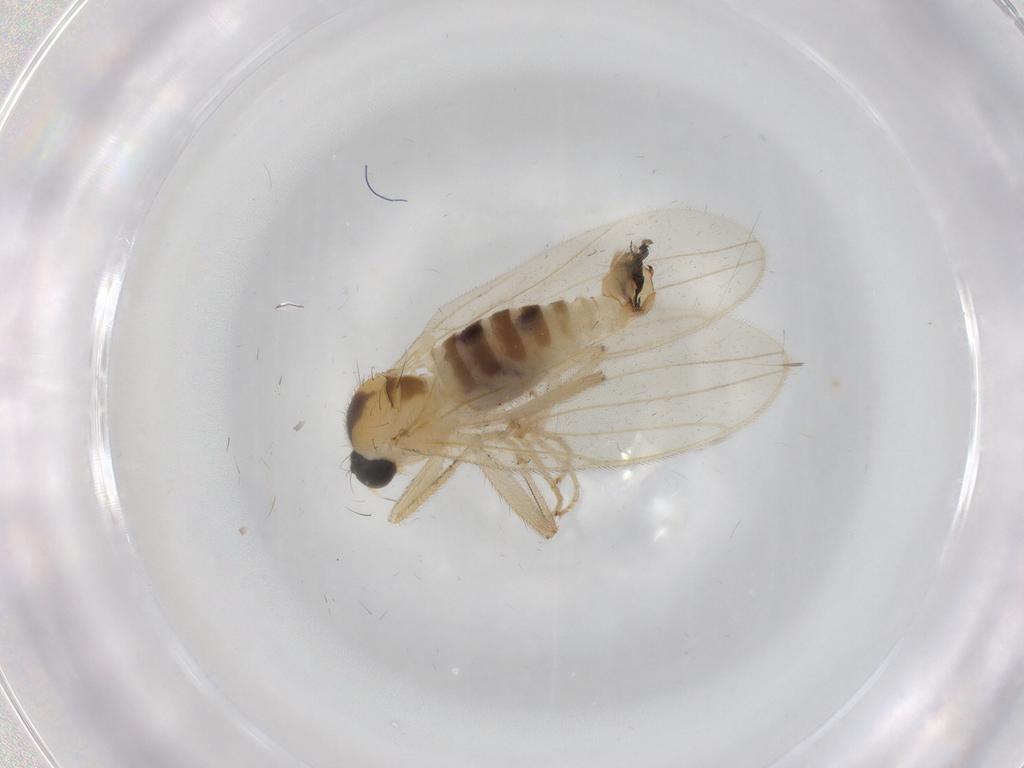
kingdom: Animalia
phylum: Arthropoda
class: Insecta
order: Diptera
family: Hybotidae
